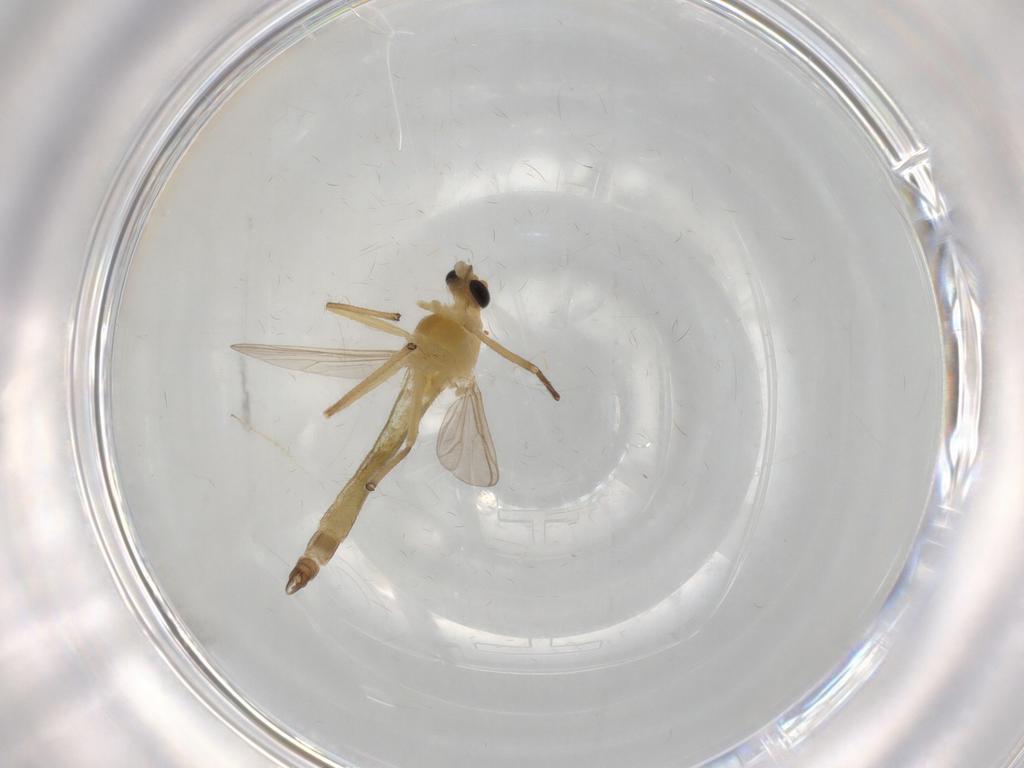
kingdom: Animalia
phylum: Arthropoda
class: Insecta
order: Diptera
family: Chironomidae
